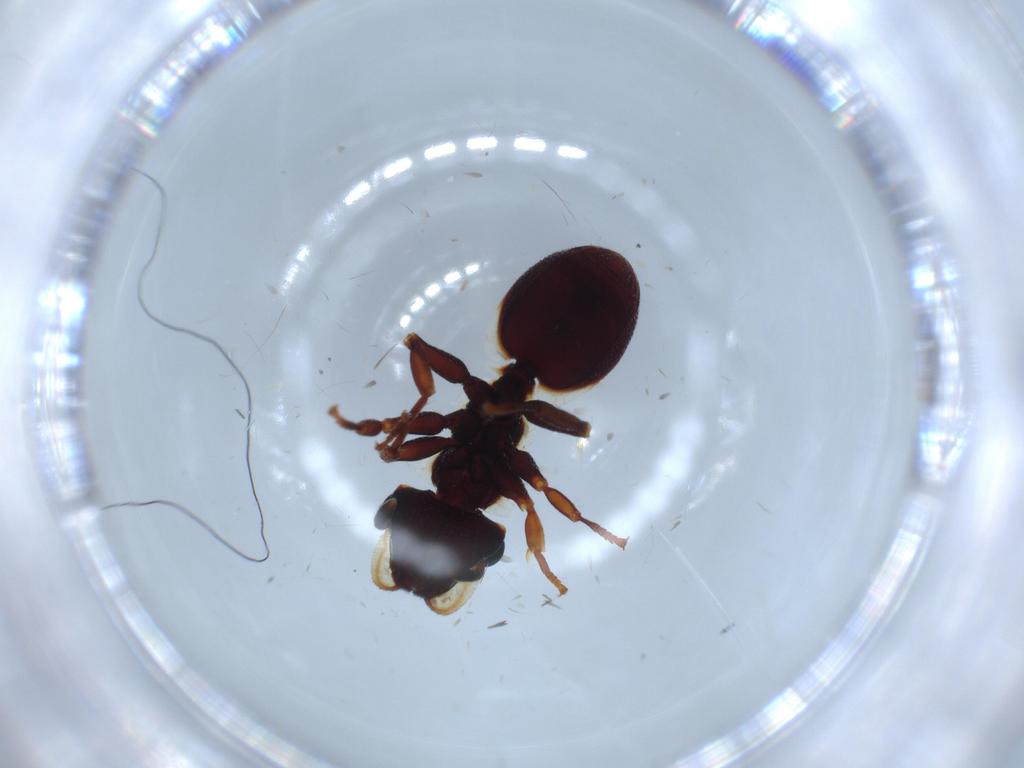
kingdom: Animalia
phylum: Arthropoda
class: Insecta
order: Hymenoptera
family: Formicidae
